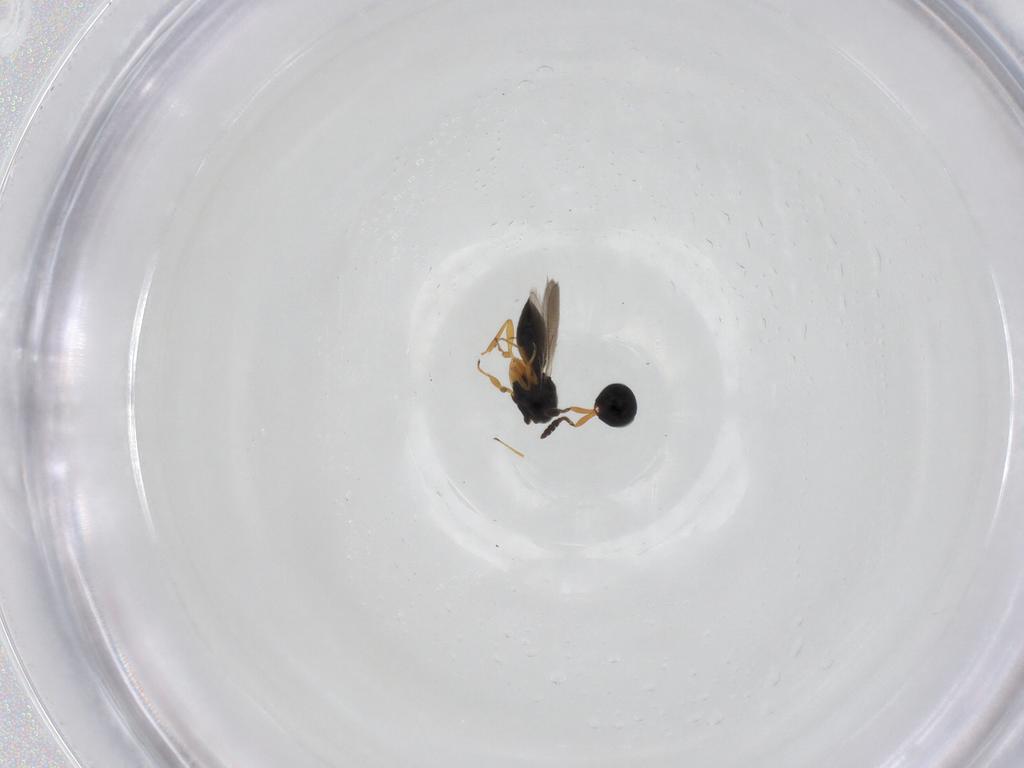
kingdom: Animalia
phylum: Arthropoda
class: Insecta
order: Hymenoptera
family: Scelionidae
